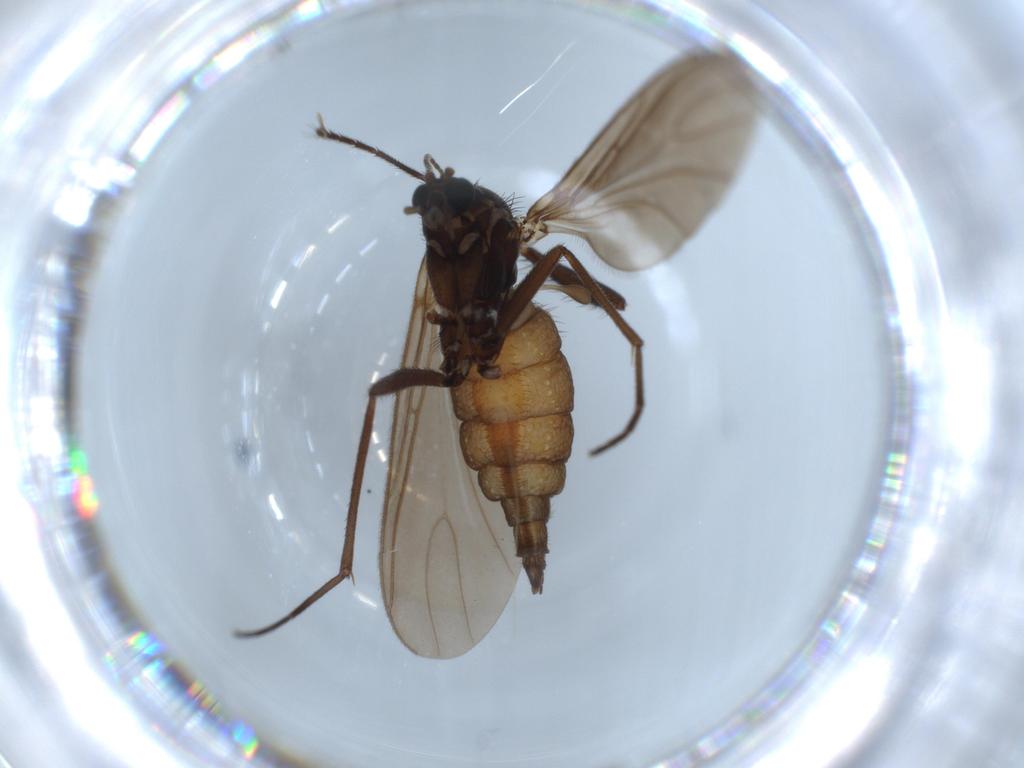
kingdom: Animalia
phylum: Arthropoda
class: Insecta
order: Diptera
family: Sciaridae
